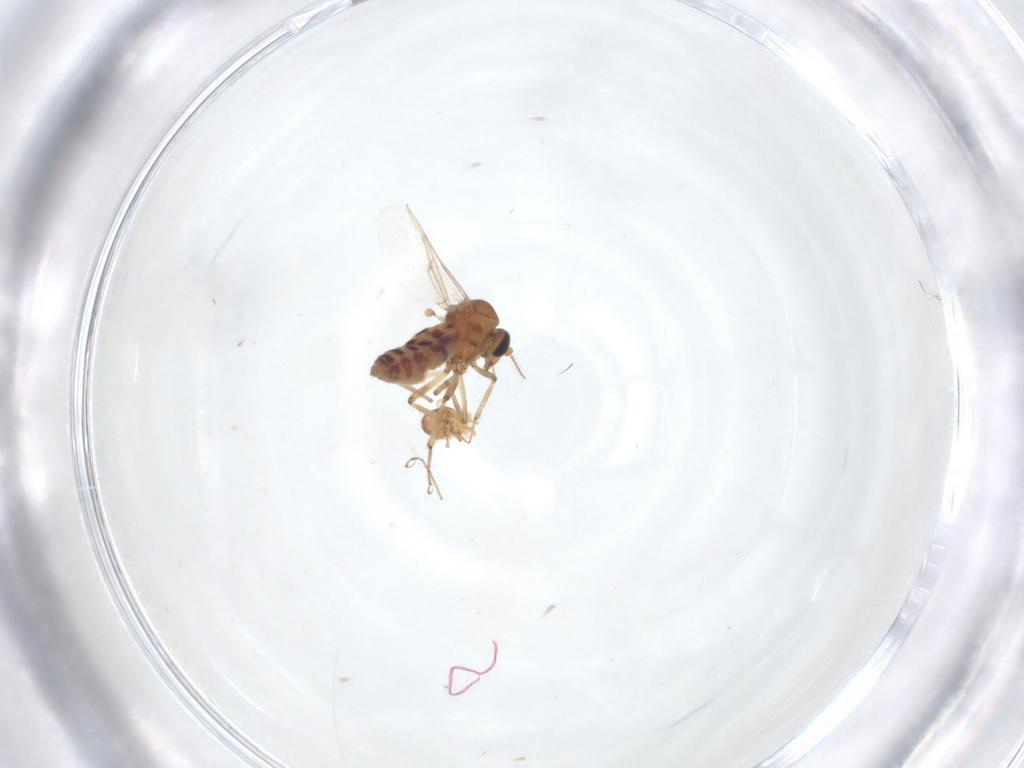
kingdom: Animalia
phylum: Arthropoda
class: Insecta
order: Diptera
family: Ceratopogonidae
